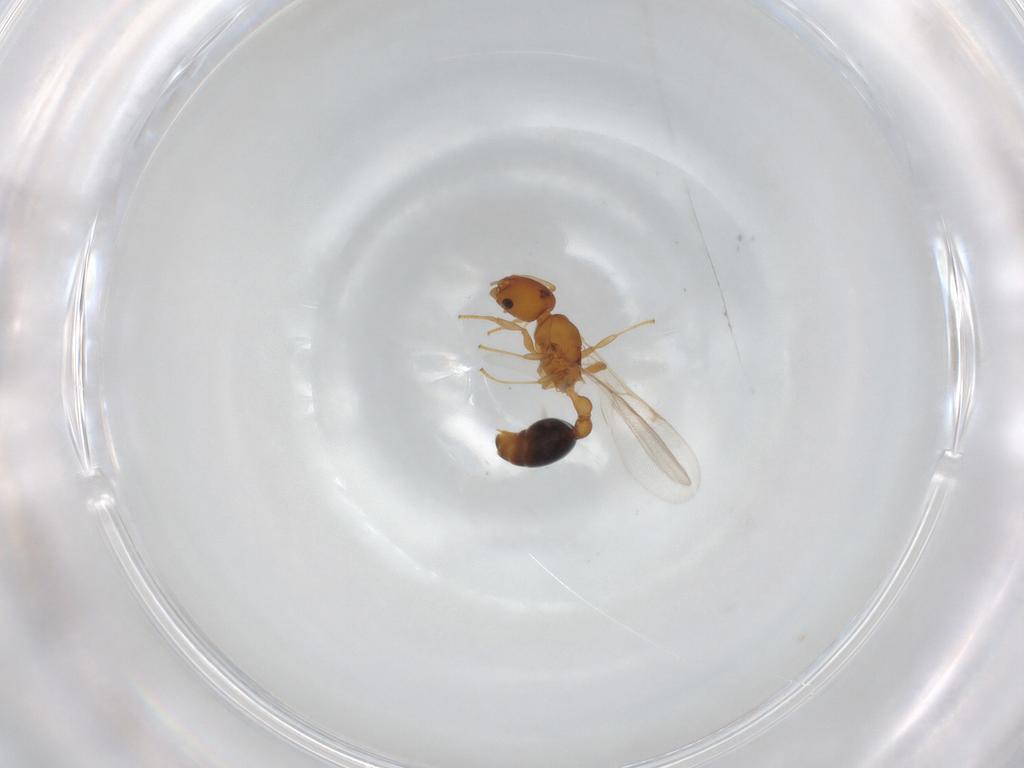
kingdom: Animalia
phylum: Arthropoda
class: Insecta
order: Hymenoptera
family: Formicidae
